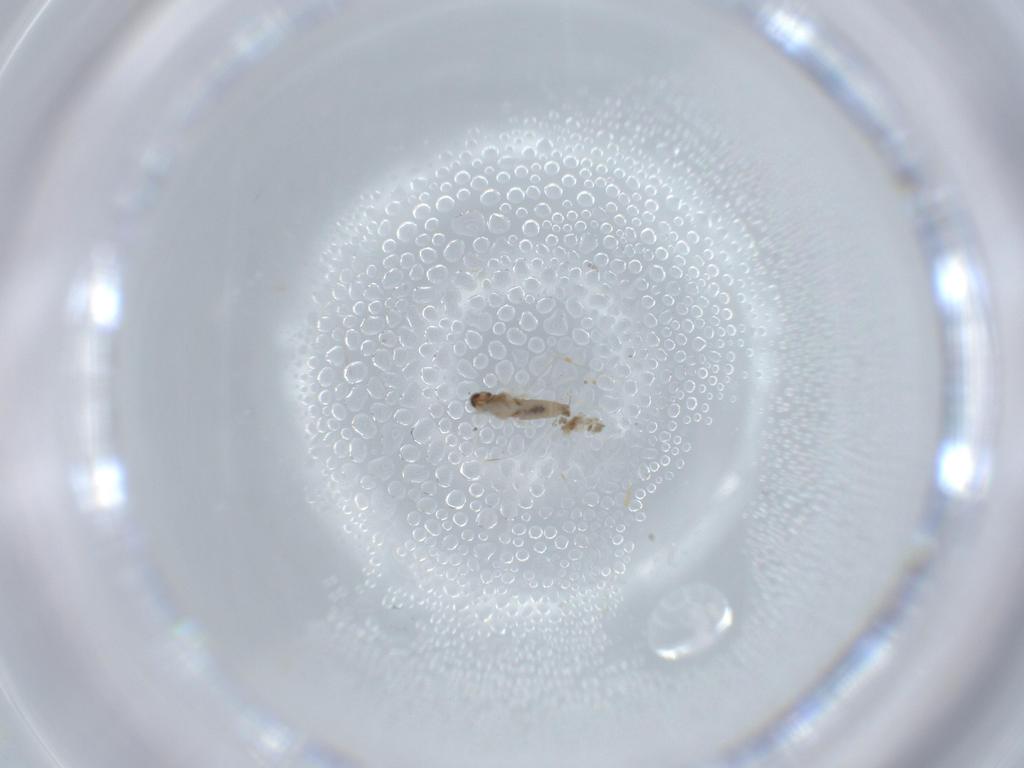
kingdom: Animalia
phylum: Arthropoda
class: Insecta
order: Diptera
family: Cecidomyiidae
